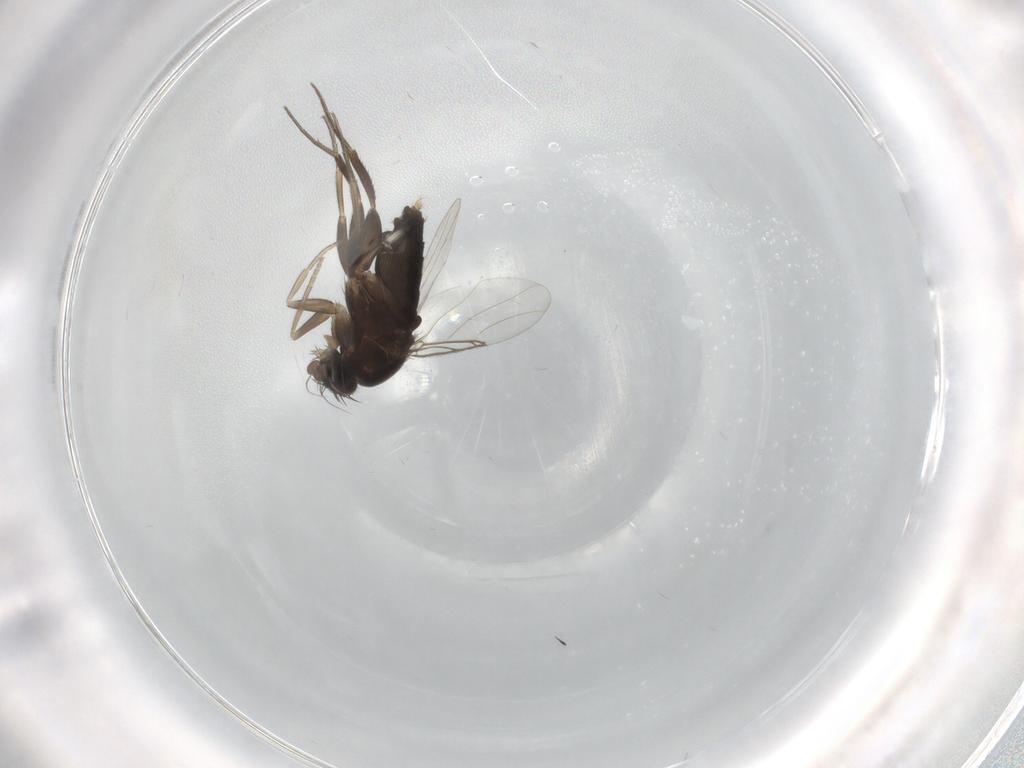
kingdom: Animalia
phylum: Arthropoda
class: Insecta
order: Diptera
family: Phoridae
